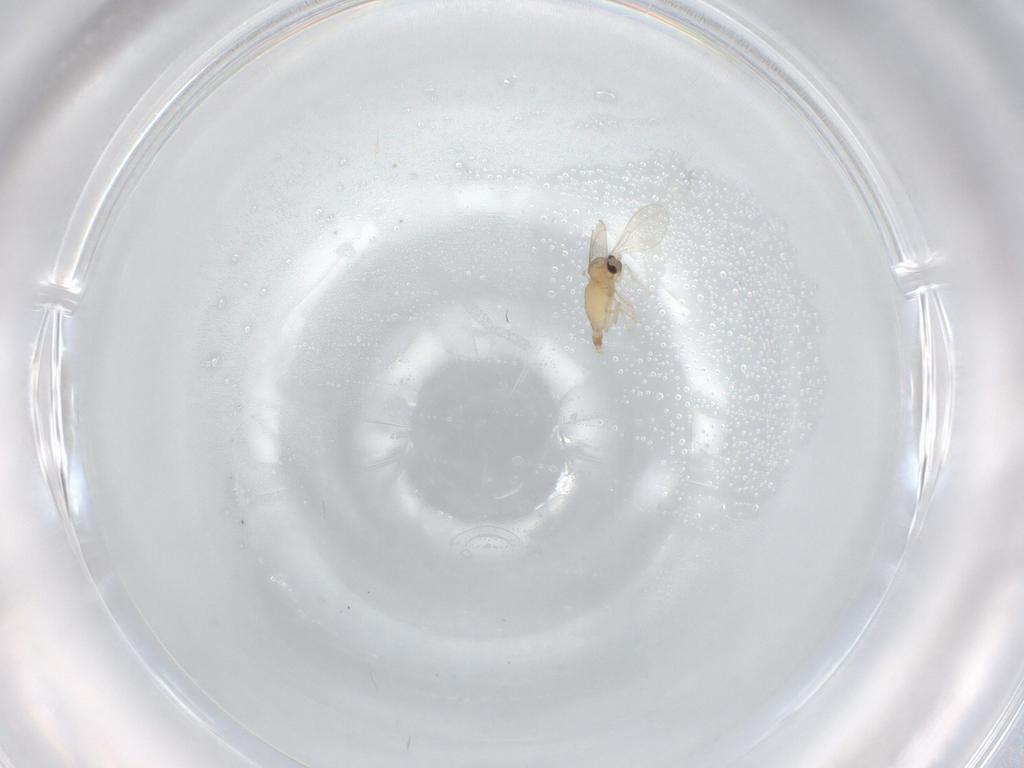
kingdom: Animalia
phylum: Arthropoda
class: Insecta
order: Diptera
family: Cecidomyiidae
